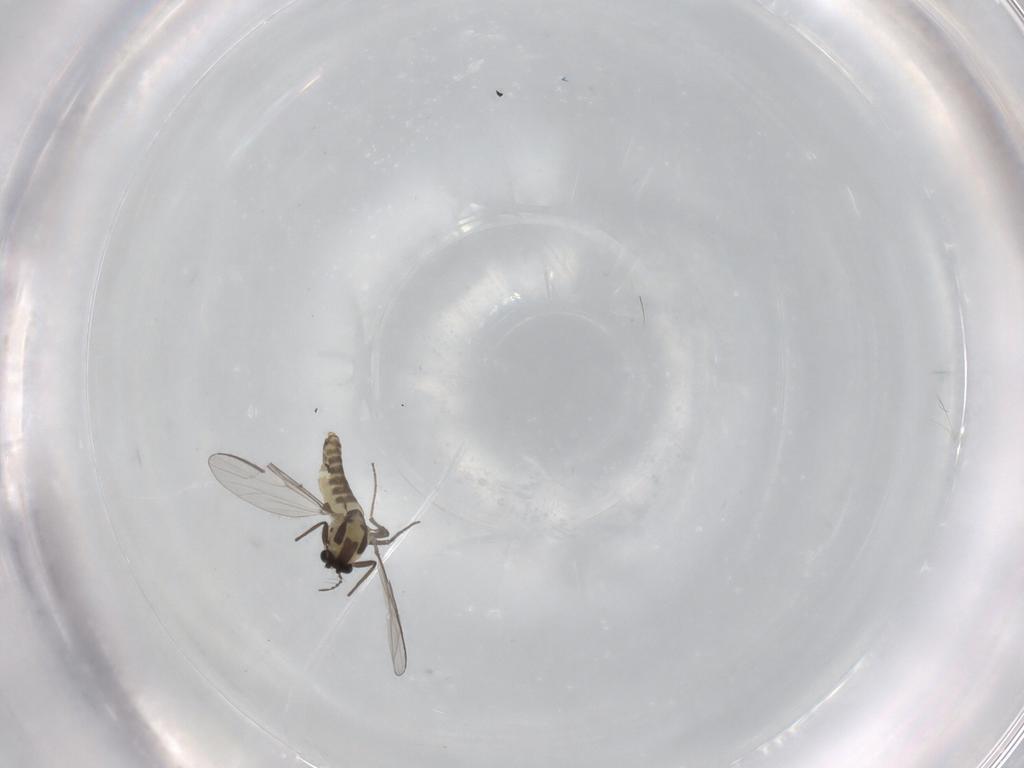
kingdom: Animalia
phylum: Arthropoda
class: Insecta
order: Diptera
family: Chironomidae
